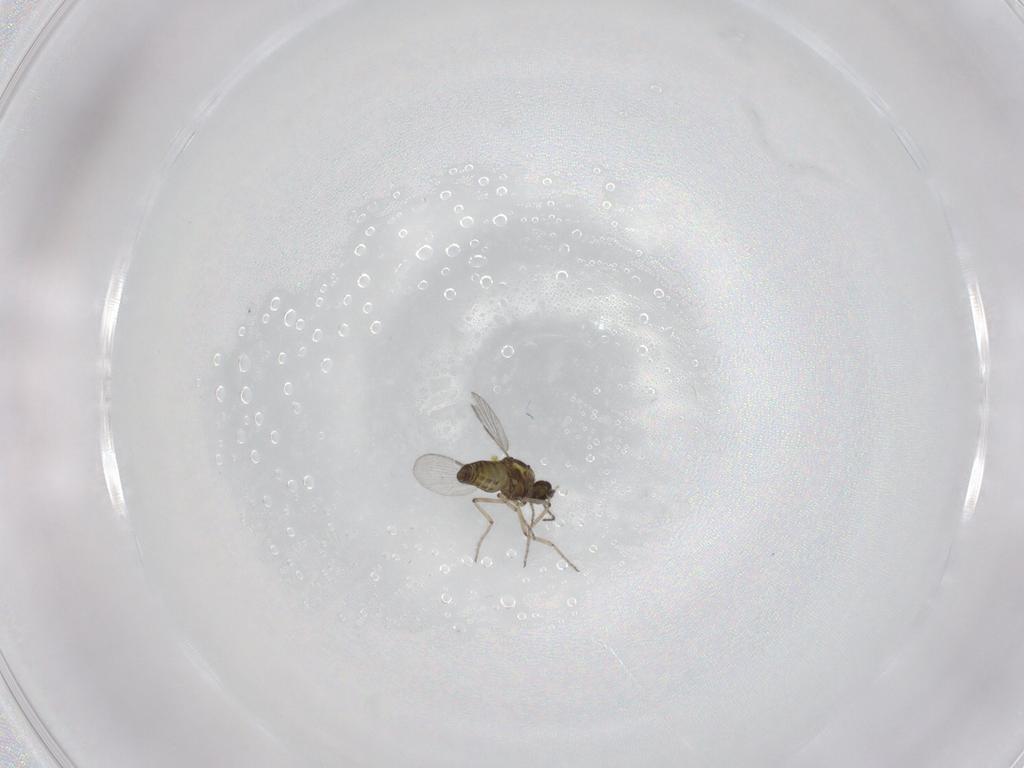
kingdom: Animalia
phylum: Arthropoda
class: Insecta
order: Diptera
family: Ceratopogonidae
